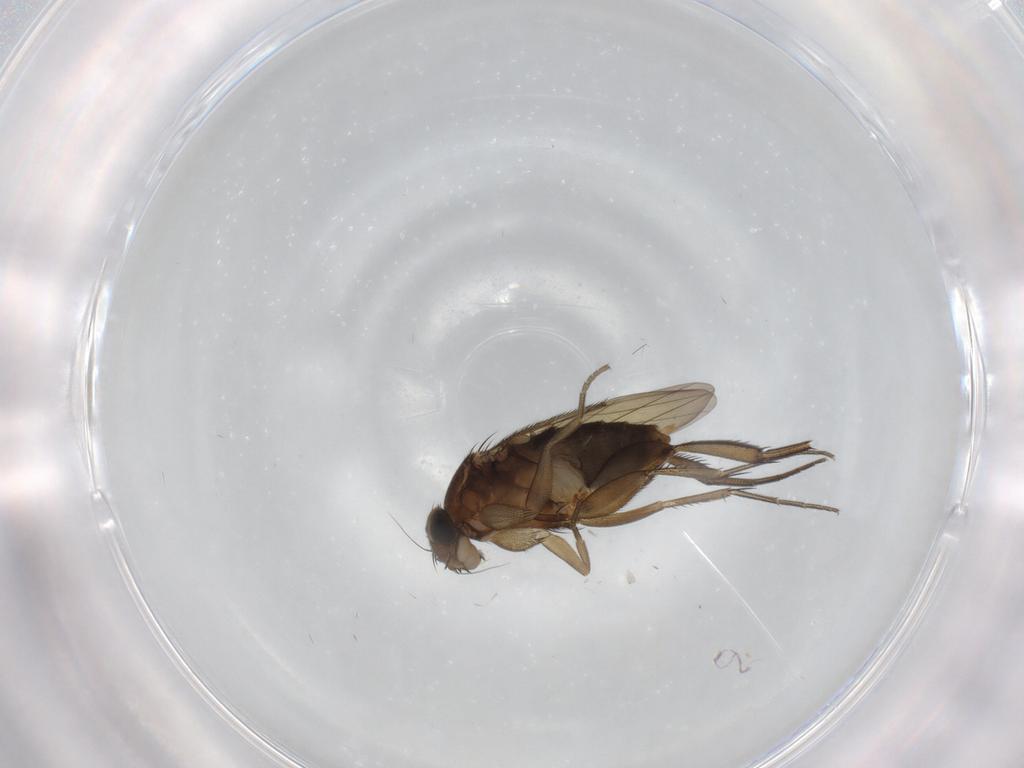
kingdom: Animalia
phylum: Arthropoda
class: Insecta
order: Diptera
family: Phoridae
